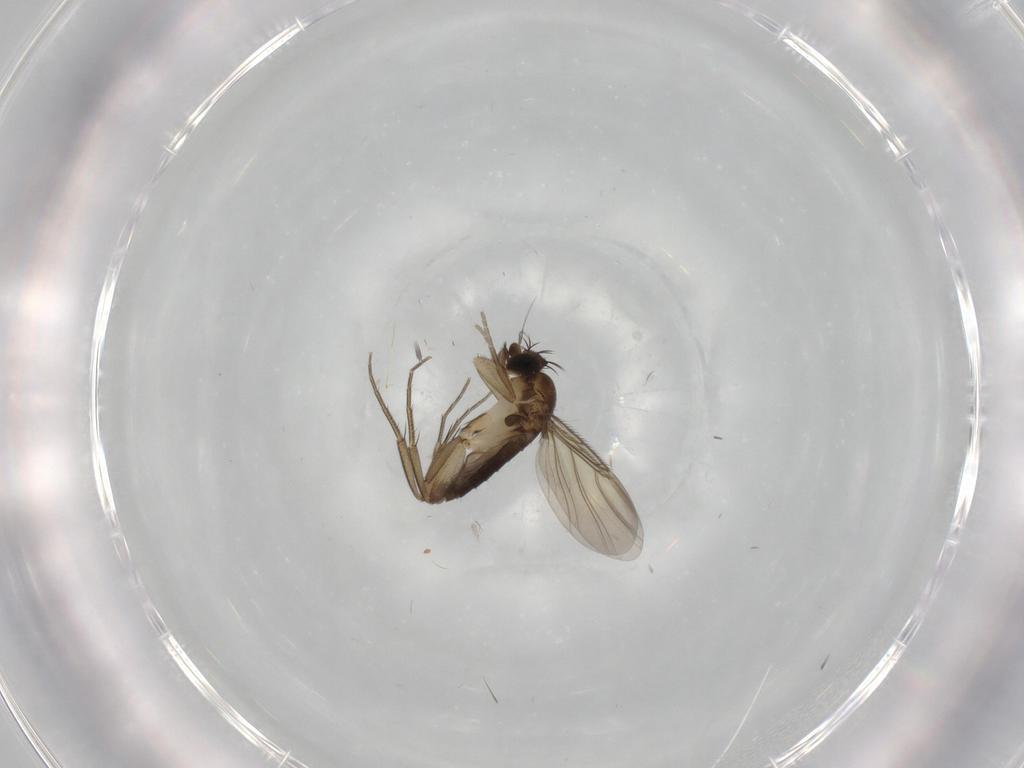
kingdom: Animalia
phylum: Arthropoda
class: Insecta
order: Diptera
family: Phoridae
